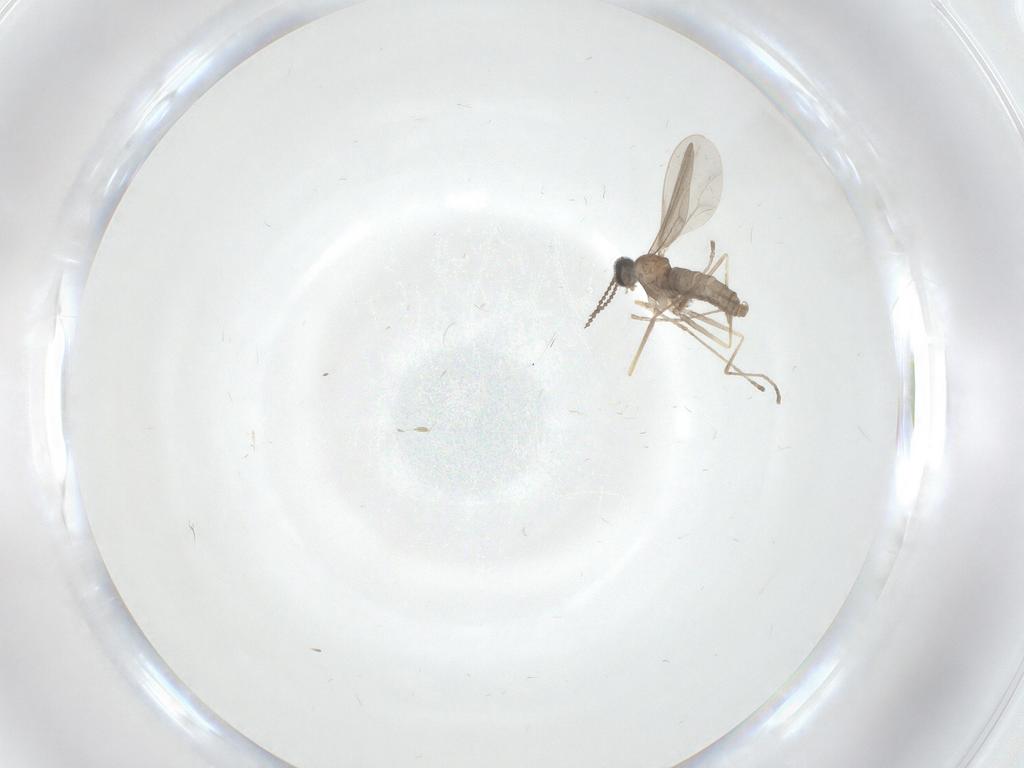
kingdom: Animalia
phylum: Arthropoda
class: Insecta
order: Diptera
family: Cecidomyiidae
